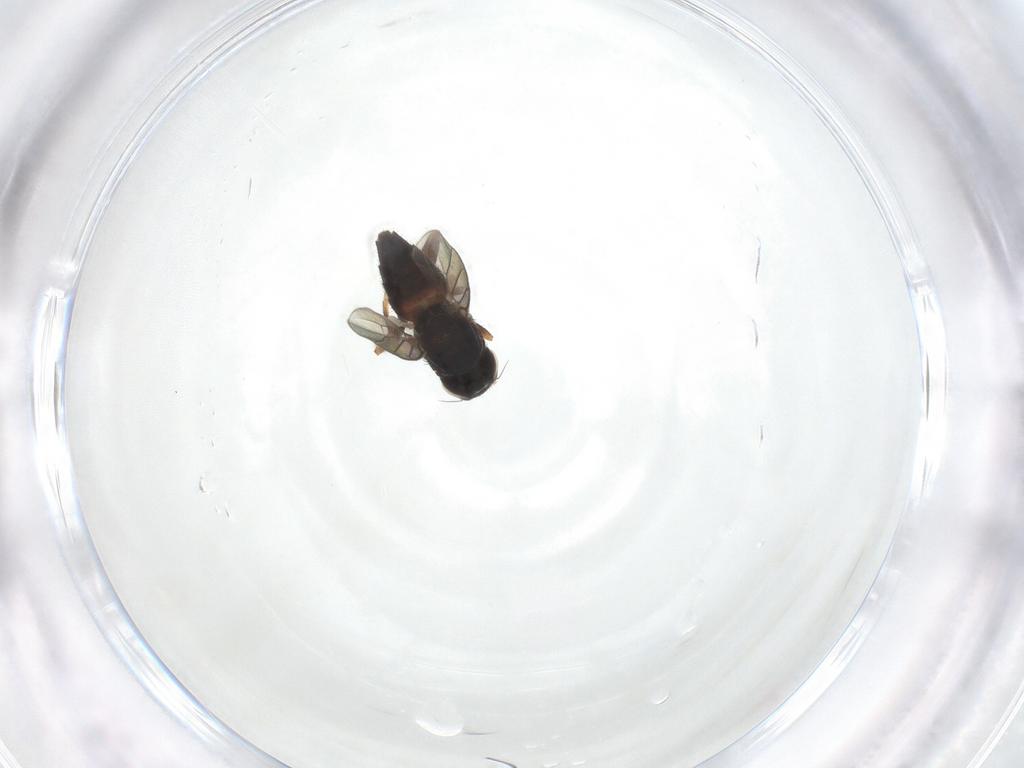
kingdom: Animalia
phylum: Arthropoda
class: Insecta
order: Diptera
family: Chloropidae
